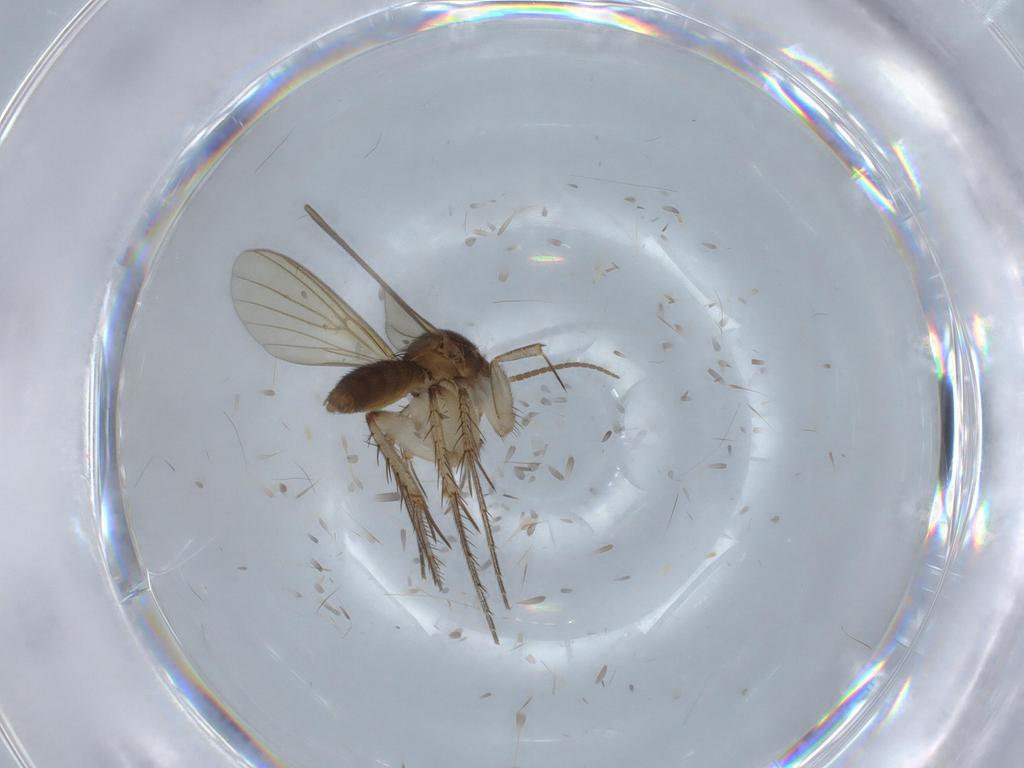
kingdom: Animalia
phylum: Arthropoda
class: Insecta
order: Diptera
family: Mycetophilidae
